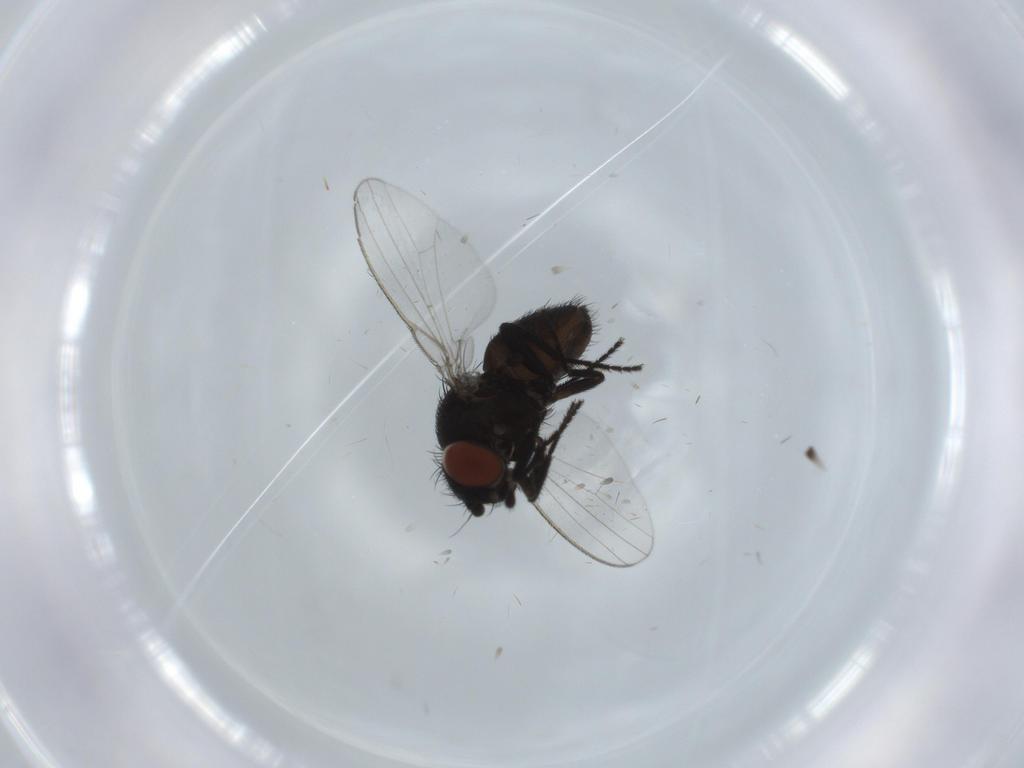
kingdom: Animalia
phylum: Arthropoda
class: Insecta
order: Diptera
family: Milichiidae
